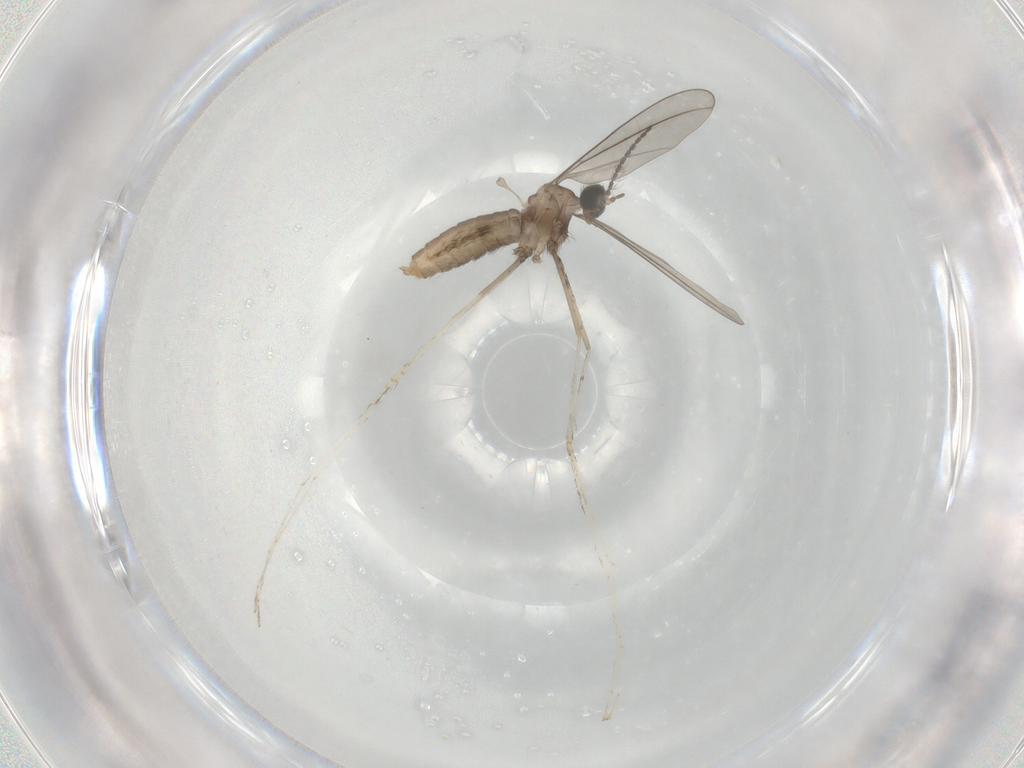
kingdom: Animalia
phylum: Arthropoda
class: Insecta
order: Diptera
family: Cecidomyiidae
